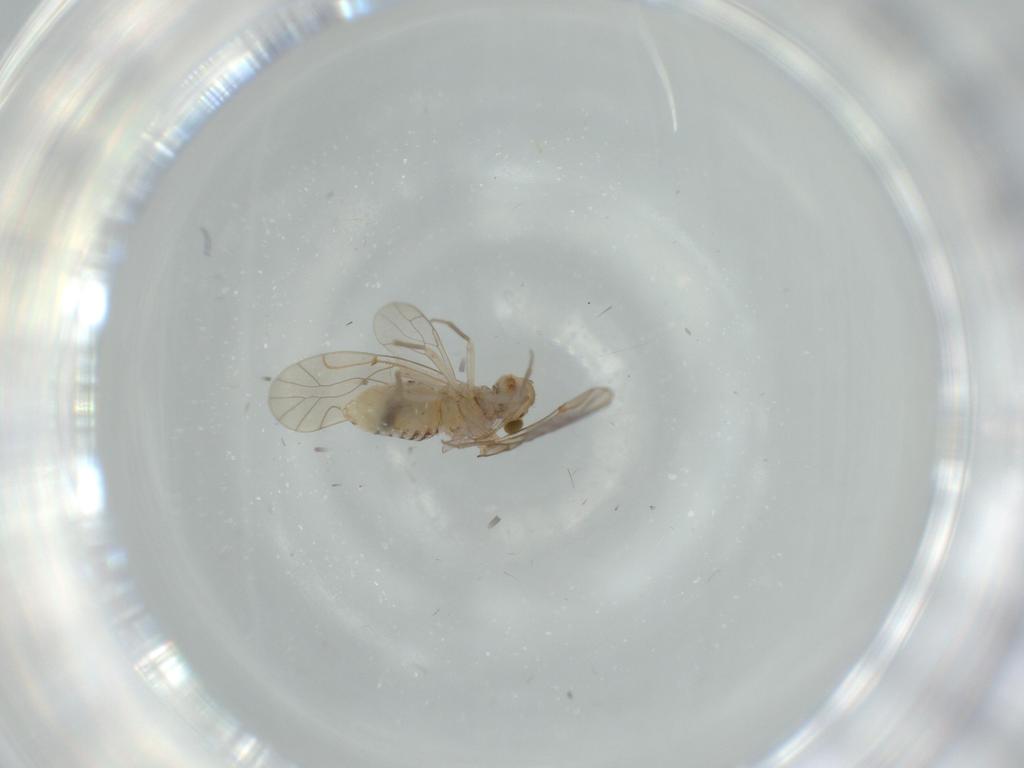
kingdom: Animalia
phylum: Arthropoda
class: Insecta
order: Psocodea
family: Lachesillidae
